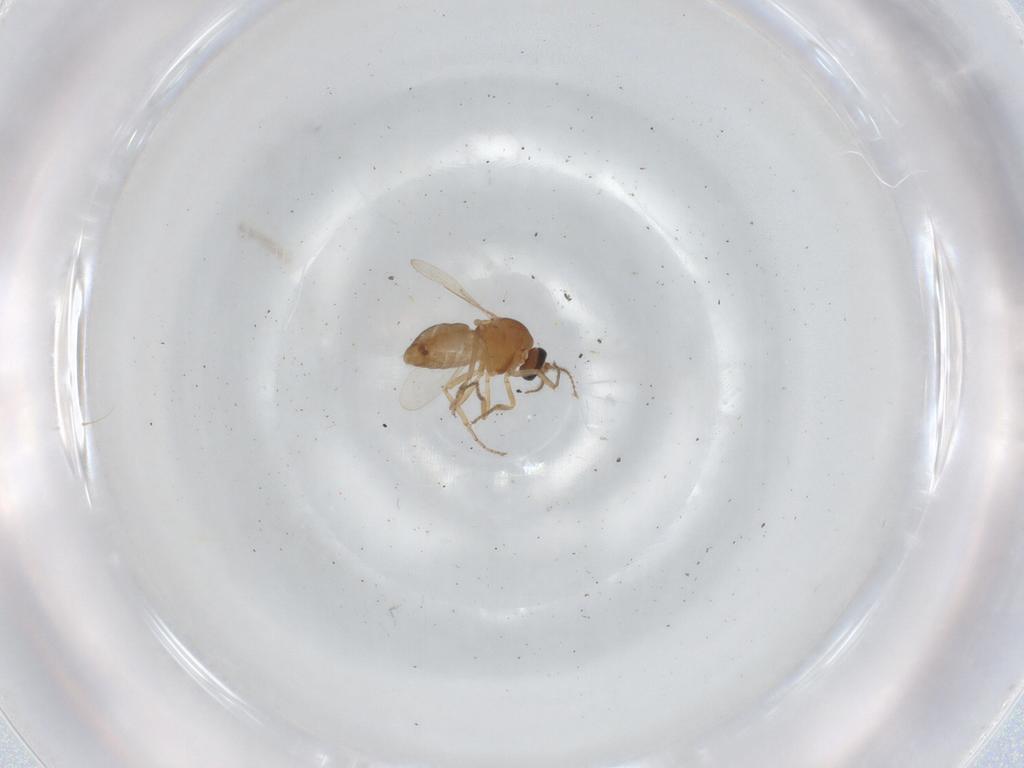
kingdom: Animalia
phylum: Arthropoda
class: Insecta
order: Diptera
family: Ceratopogonidae
